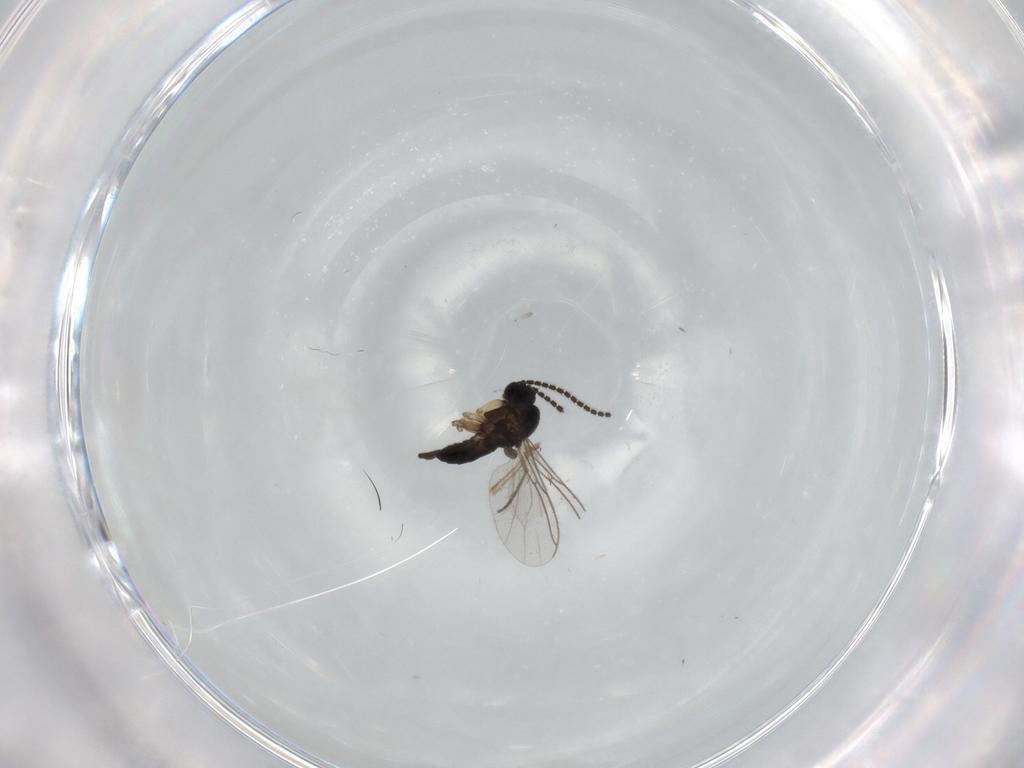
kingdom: Animalia
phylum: Arthropoda
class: Insecta
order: Diptera
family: Sciaridae
